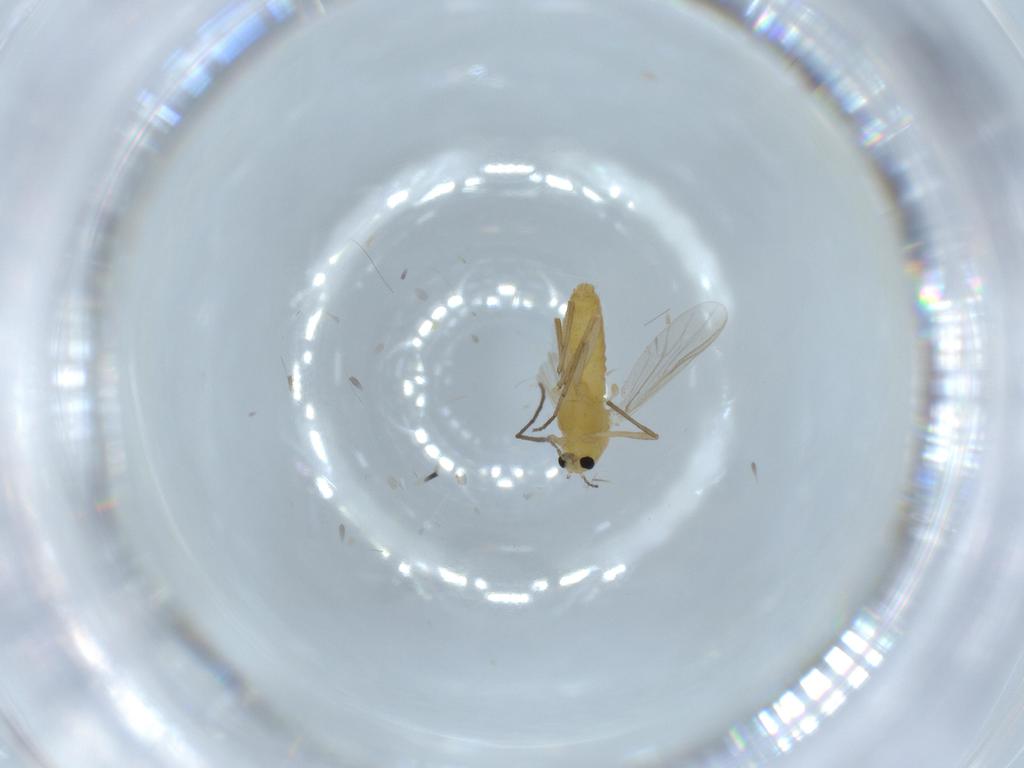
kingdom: Animalia
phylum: Arthropoda
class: Insecta
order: Diptera
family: Chironomidae
